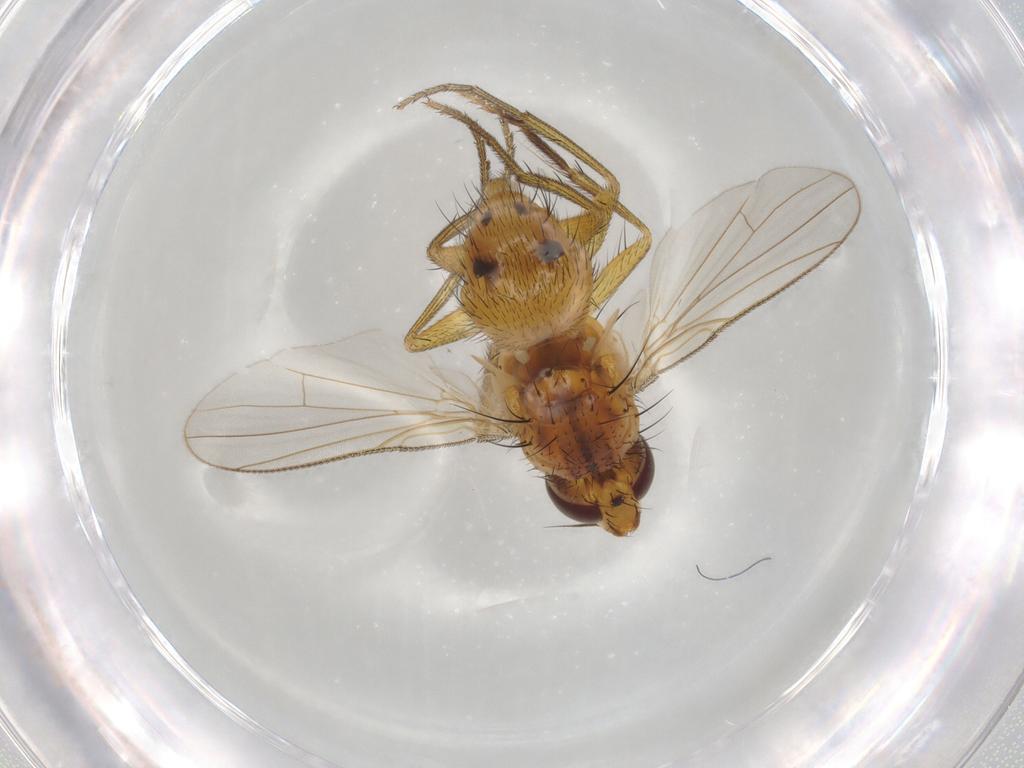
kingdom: Animalia
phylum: Arthropoda
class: Insecta
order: Diptera
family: Muscidae
